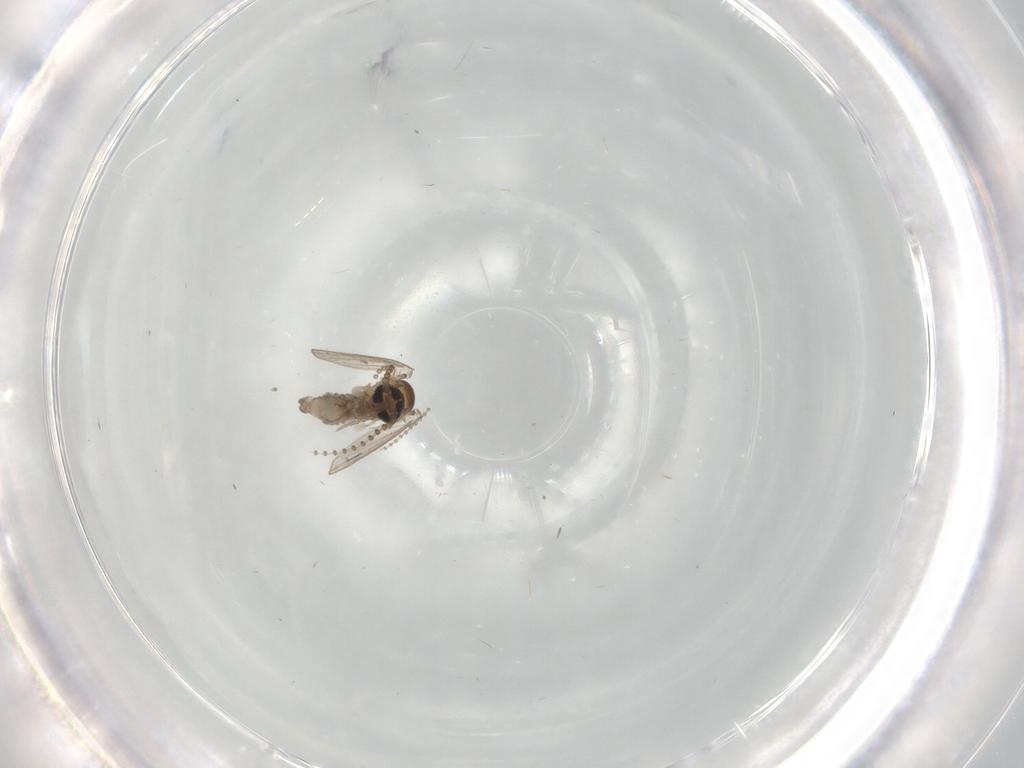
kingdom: Animalia
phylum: Arthropoda
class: Insecta
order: Diptera
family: Psychodidae
